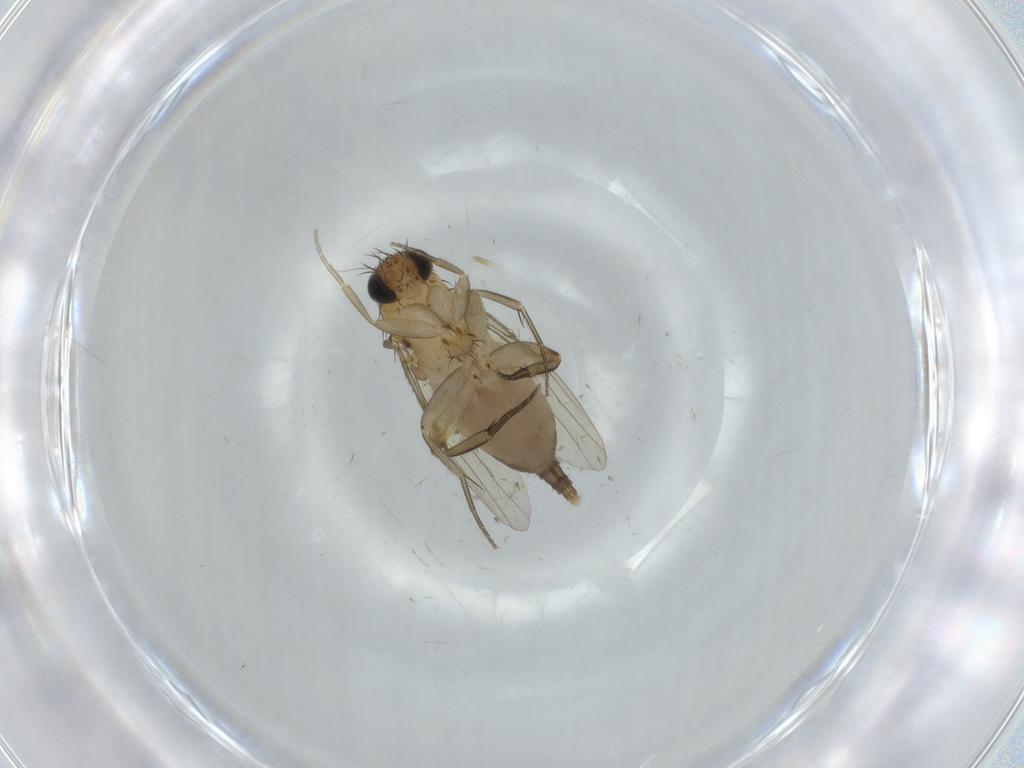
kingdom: Animalia
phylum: Arthropoda
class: Insecta
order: Diptera
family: Phoridae
